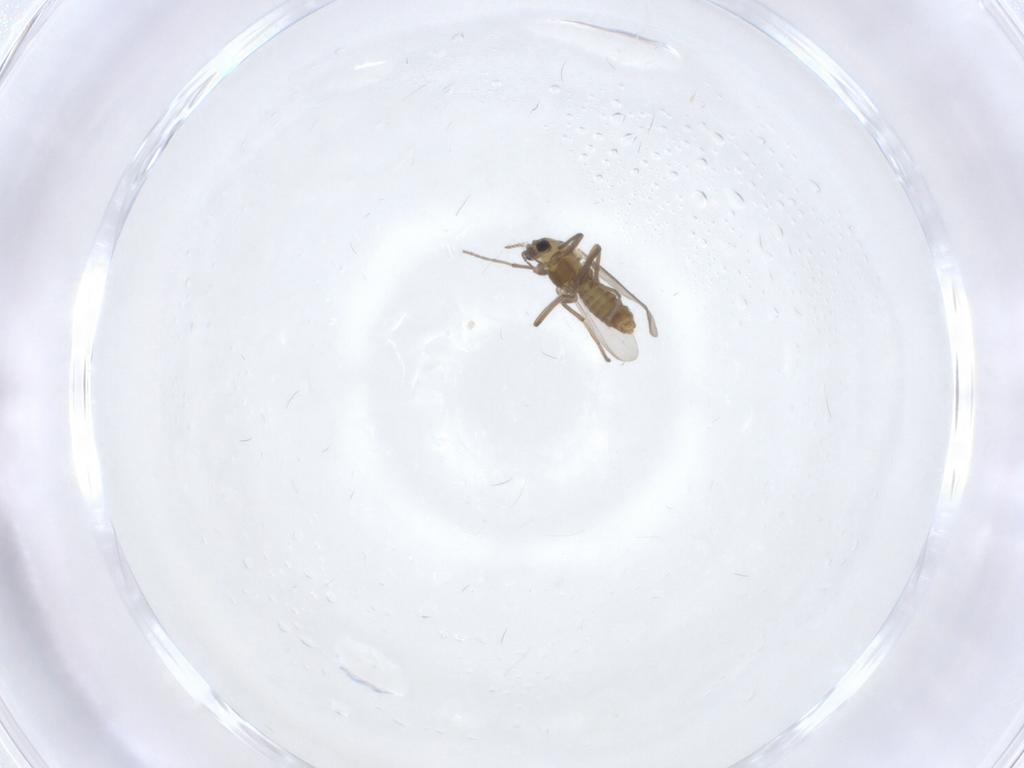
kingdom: Animalia
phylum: Arthropoda
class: Insecta
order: Diptera
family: Chironomidae
